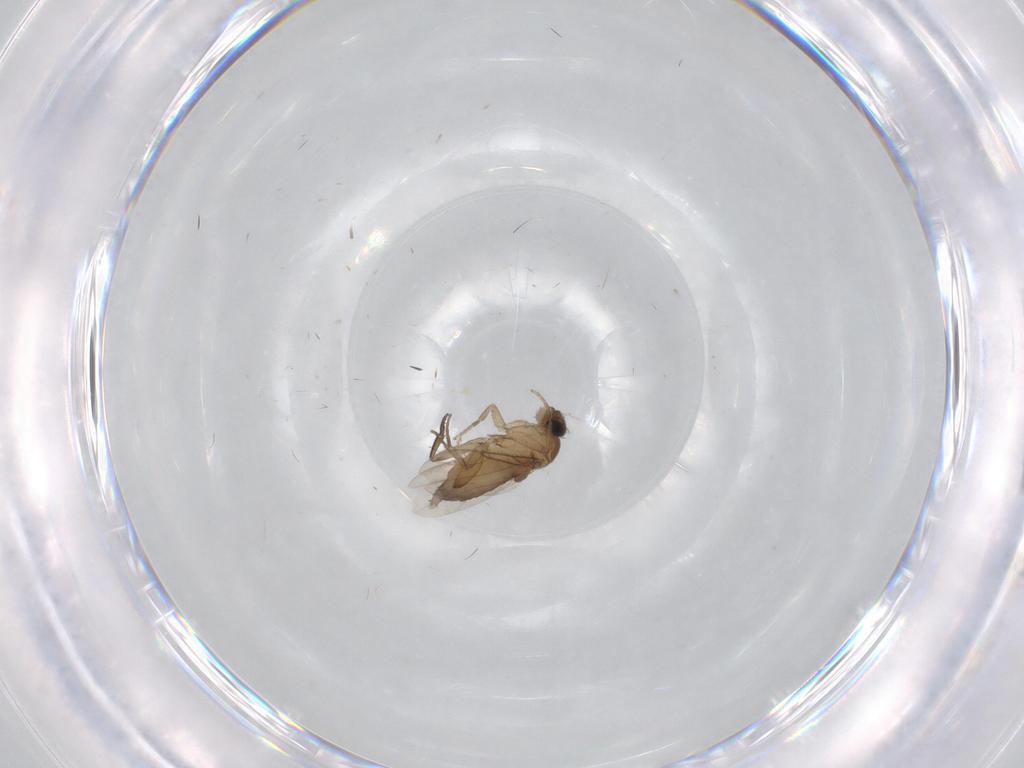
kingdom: Animalia
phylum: Arthropoda
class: Insecta
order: Diptera
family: Phoridae
